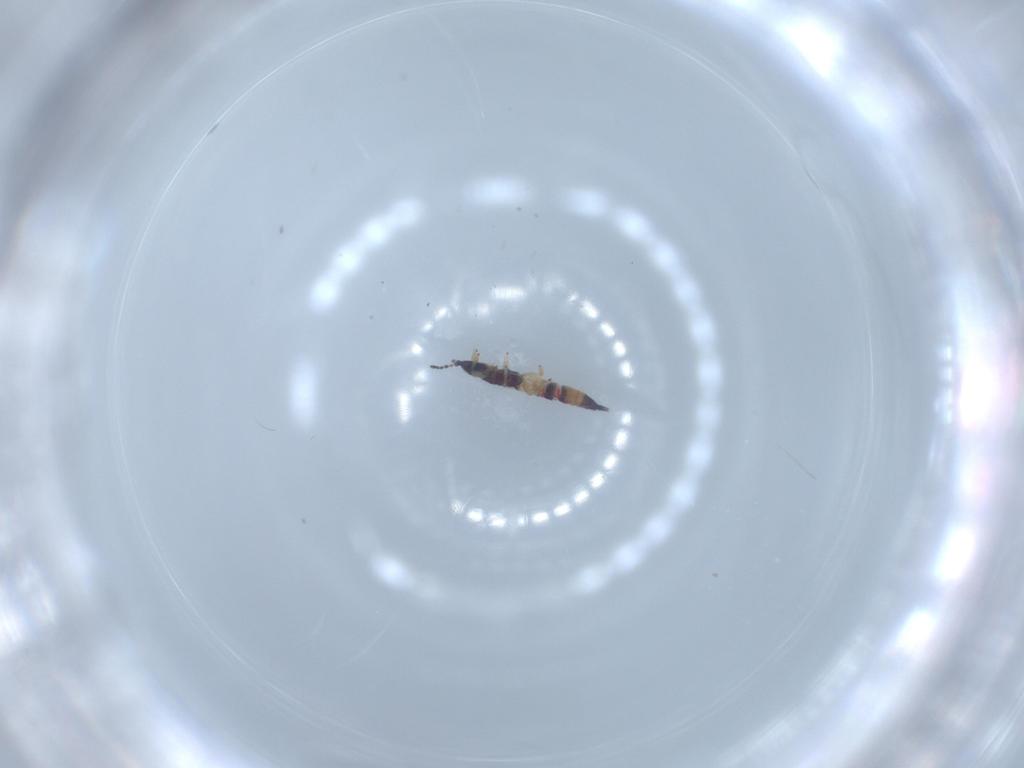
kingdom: Animalia
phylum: Arthropoda
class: Insecta
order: Thysanoptera
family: Phlaeothripidae
